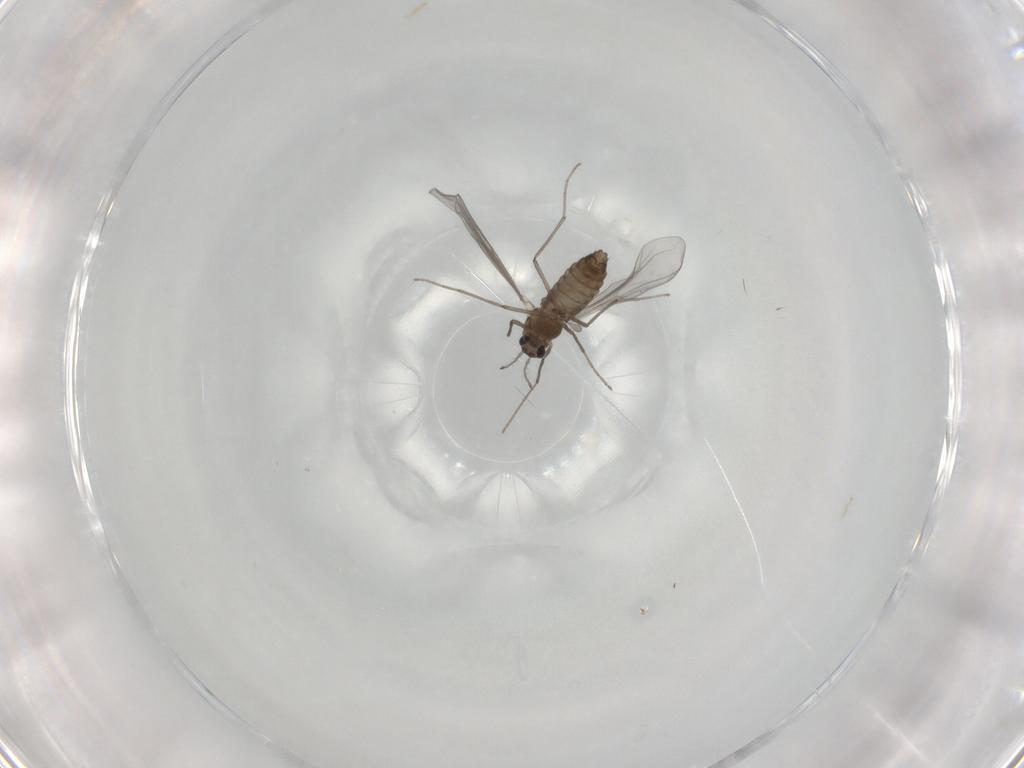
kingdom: Animalia
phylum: Arthropoda
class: Insecta
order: Diptera
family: Chironomidae
